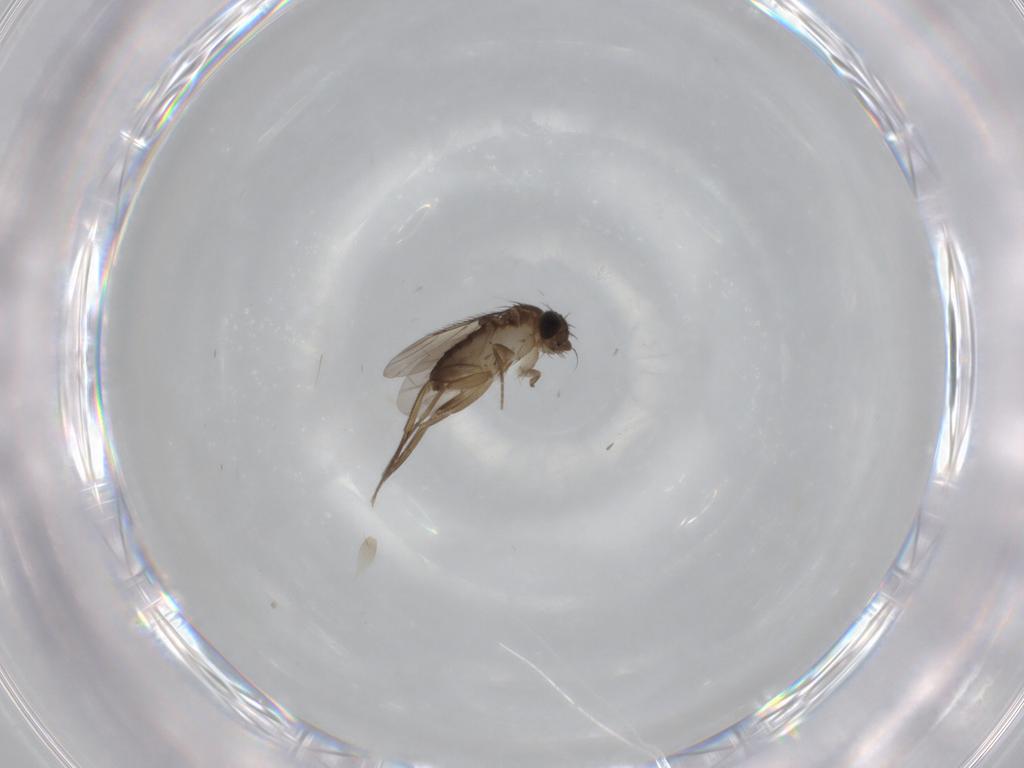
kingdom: Animalia
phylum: Arthropoda
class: Insecta
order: Diptera
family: Phoridae
